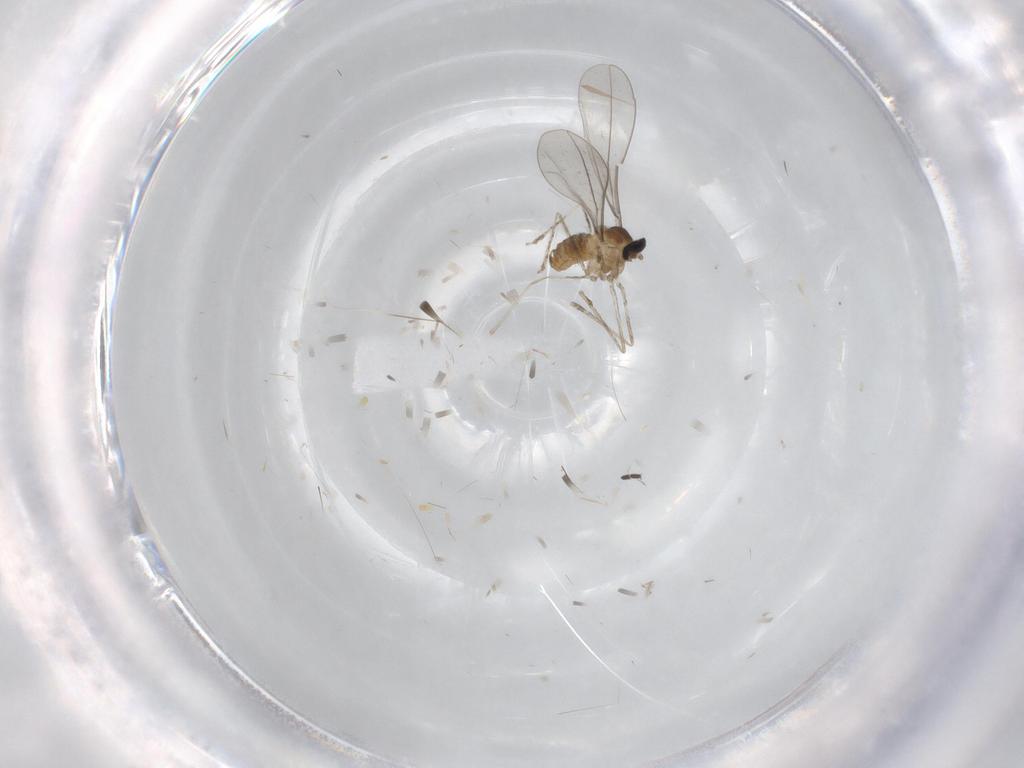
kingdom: Animalia
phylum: Arthropoda
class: Insecta
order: Diptera
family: Cecidomyiidae
